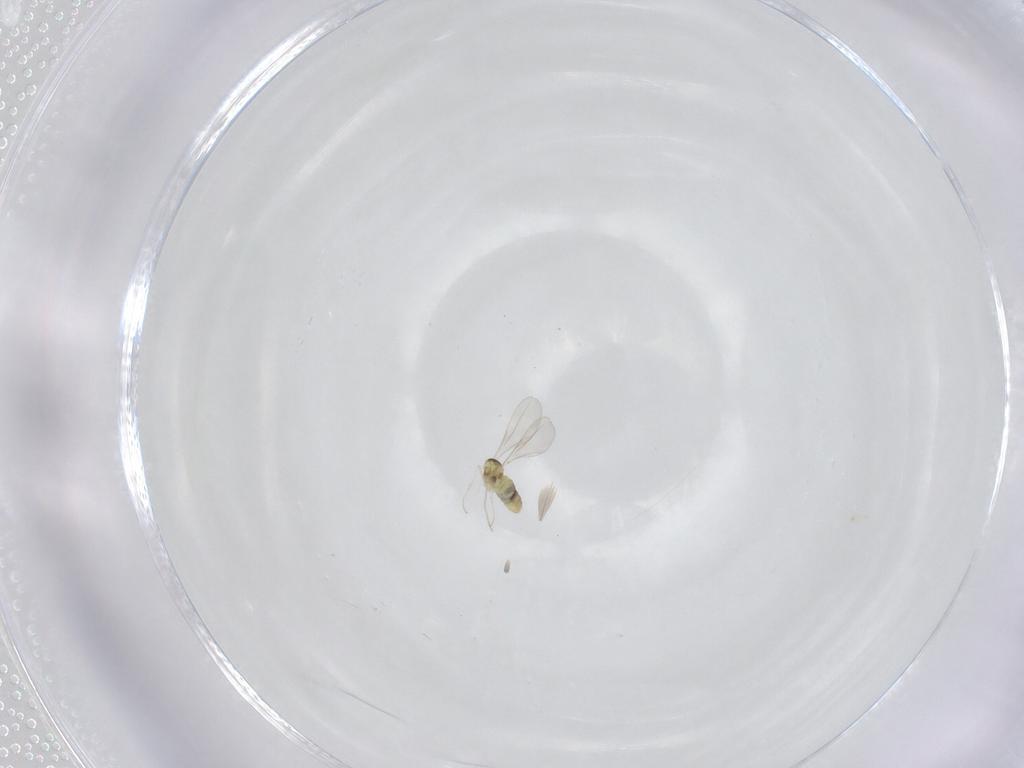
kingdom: Animalia
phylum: Arthropoda
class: Insecta
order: Diptera
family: Cecidomyiidae
